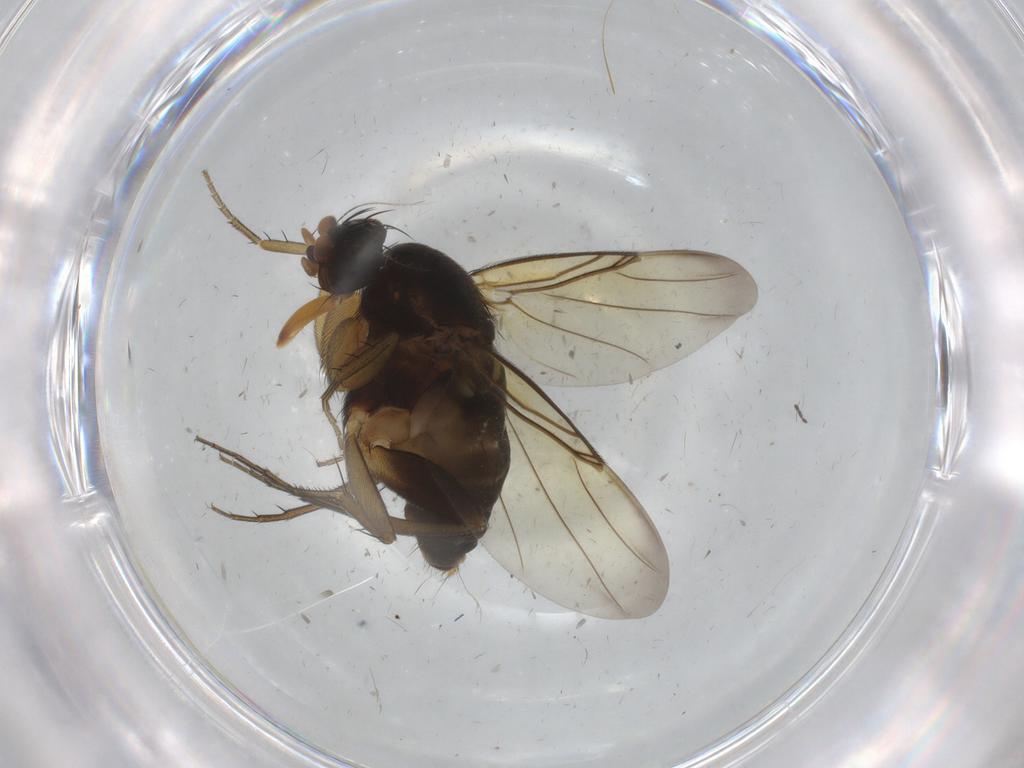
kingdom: Animalia
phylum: Arthropoda
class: Insecta
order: Diptera
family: Phoridae
